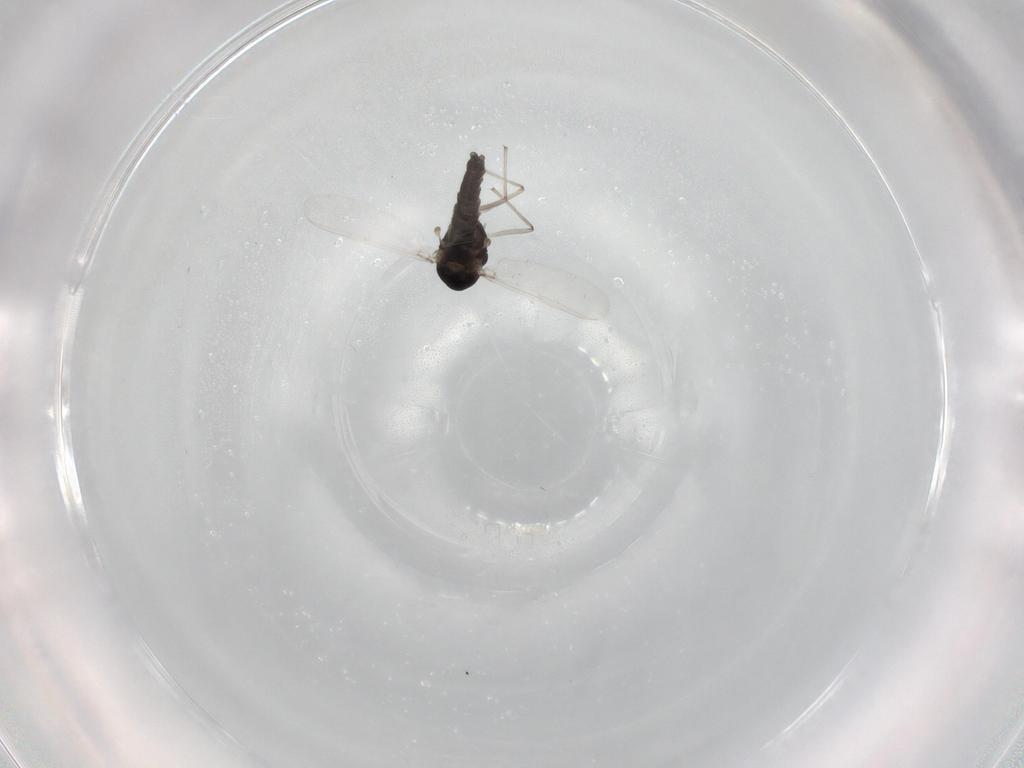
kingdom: Animalia
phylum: Arthropoda
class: Insecta
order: Diptera
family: Chironomidae
